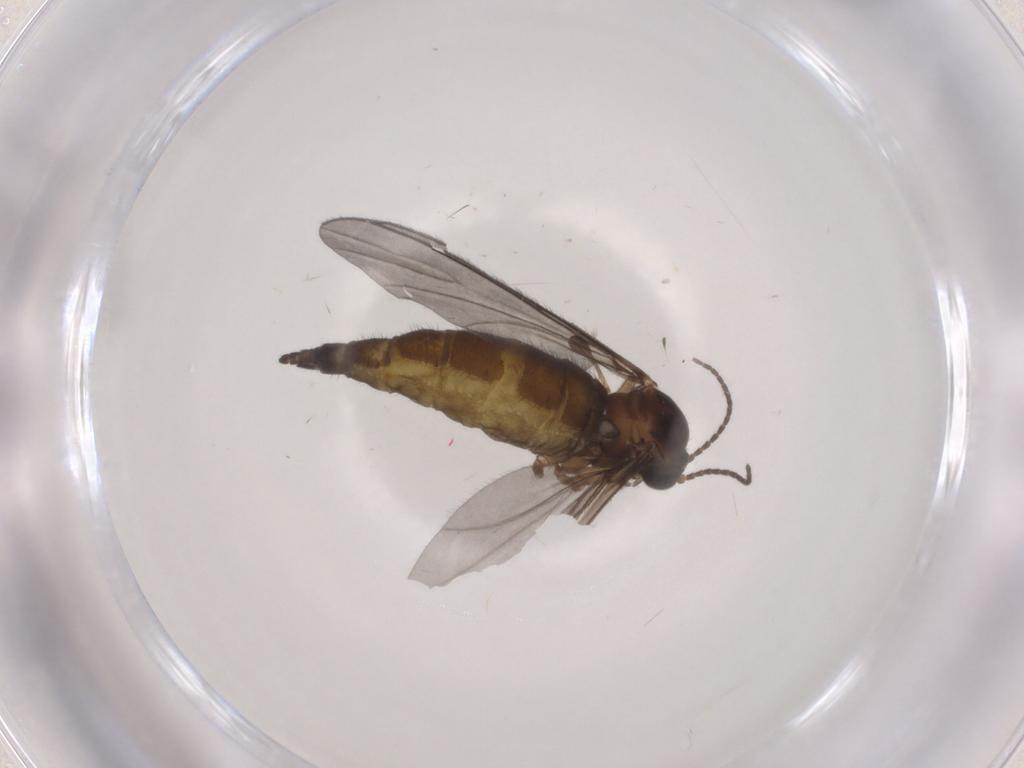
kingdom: Animalia
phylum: Arthropoda
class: Insecta
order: Diptera
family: Sciaridae
